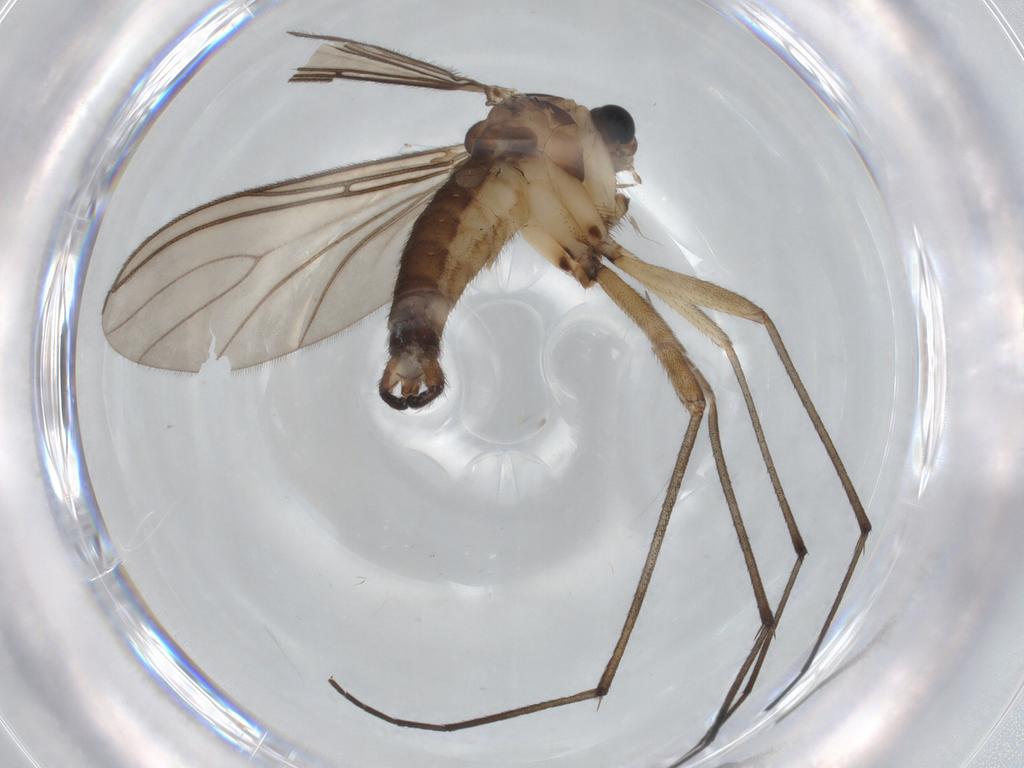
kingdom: Animalia
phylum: Arthropoda
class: Insecta
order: Diptera
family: Sciaridae
